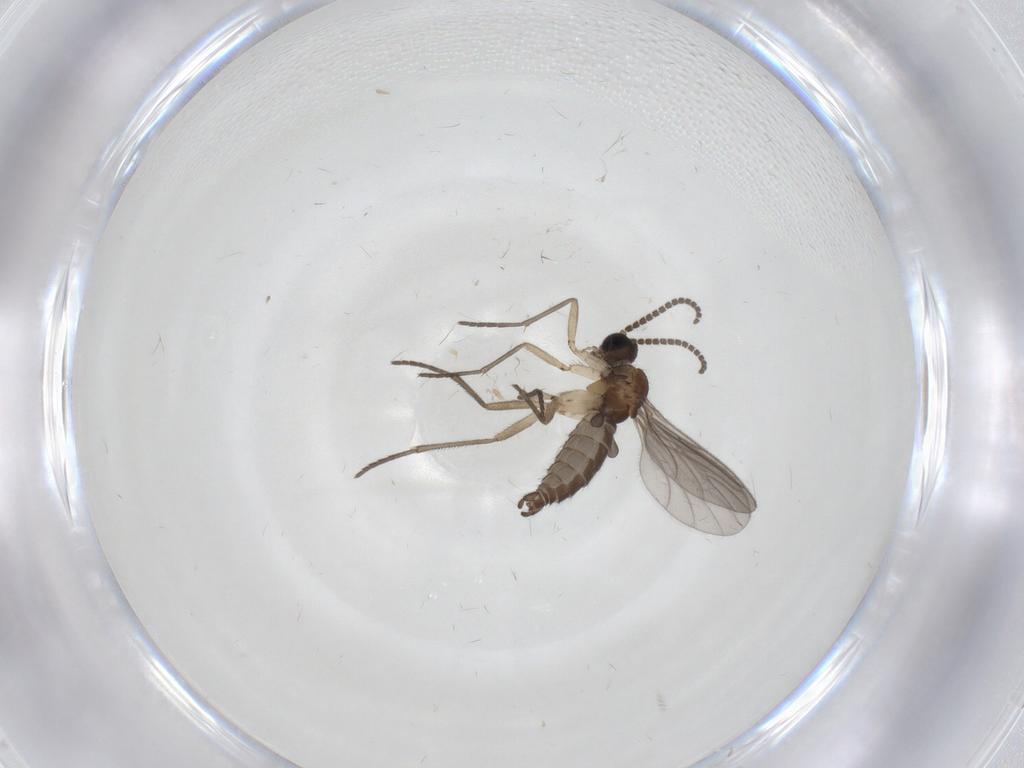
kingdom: Animalia
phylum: Arthropoda
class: Insecta
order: Diptera
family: Sciaridae
